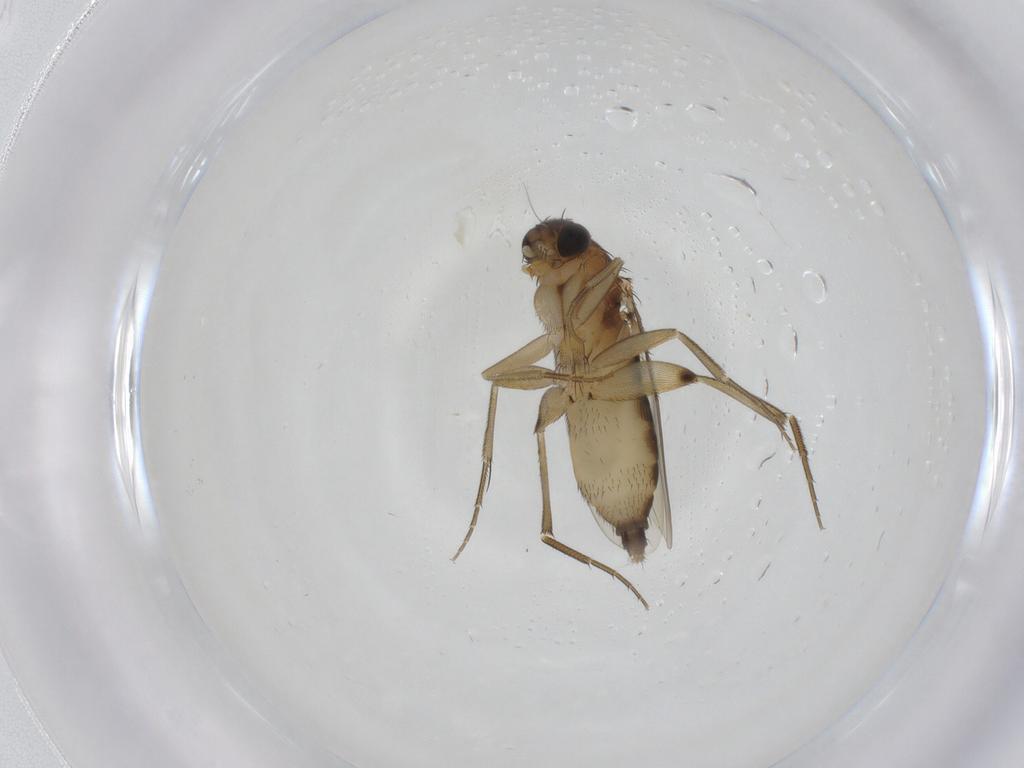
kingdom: Animalia
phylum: Arthropoda
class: Insecta
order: Diptera
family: Phoridae
